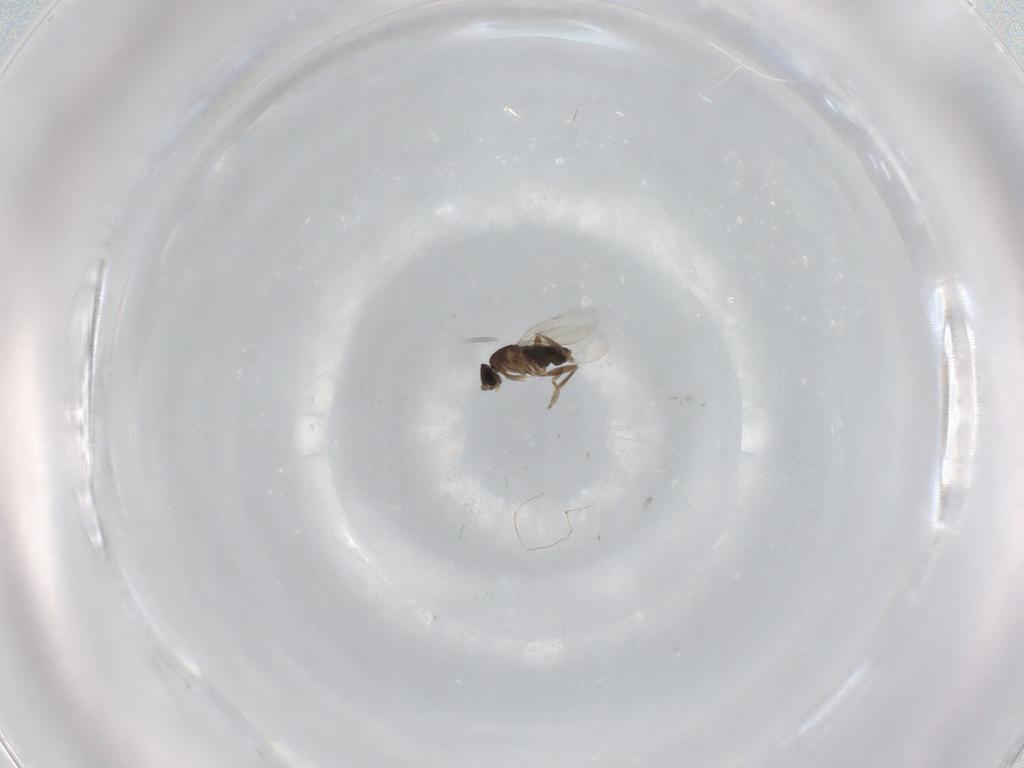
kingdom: Animalia
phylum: Arthropoda
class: Insecta
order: Diptera
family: Phoridae
